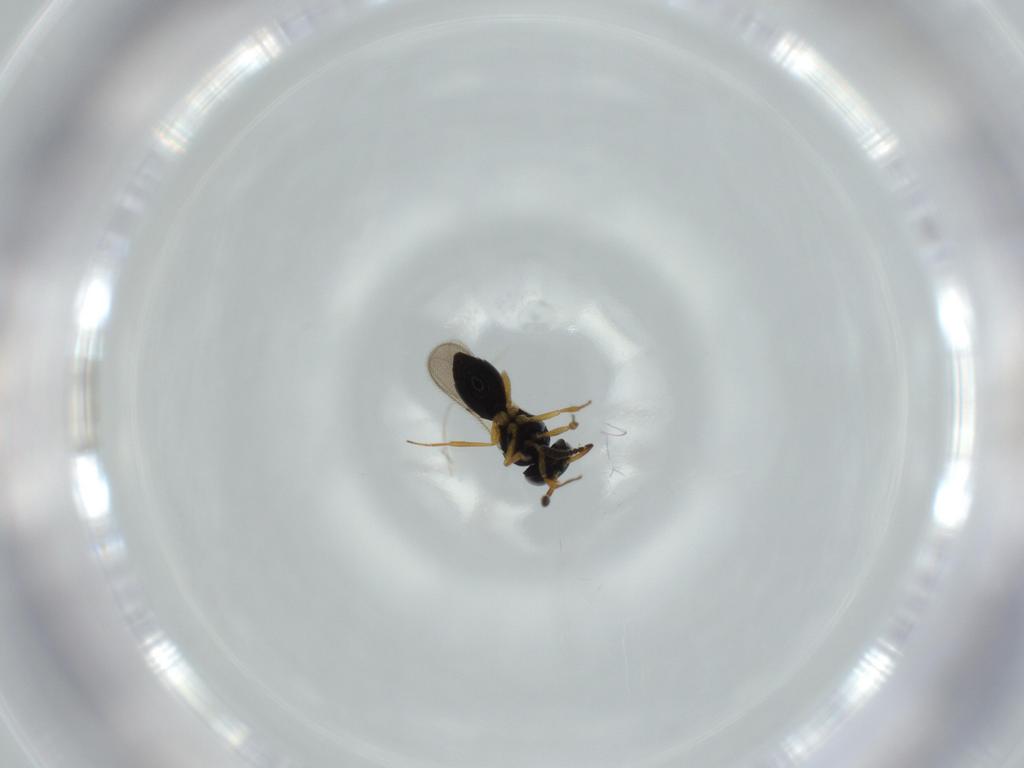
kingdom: Animalia
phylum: Arthropoda
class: Insecta
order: Hymenoptera
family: Scelionidae
